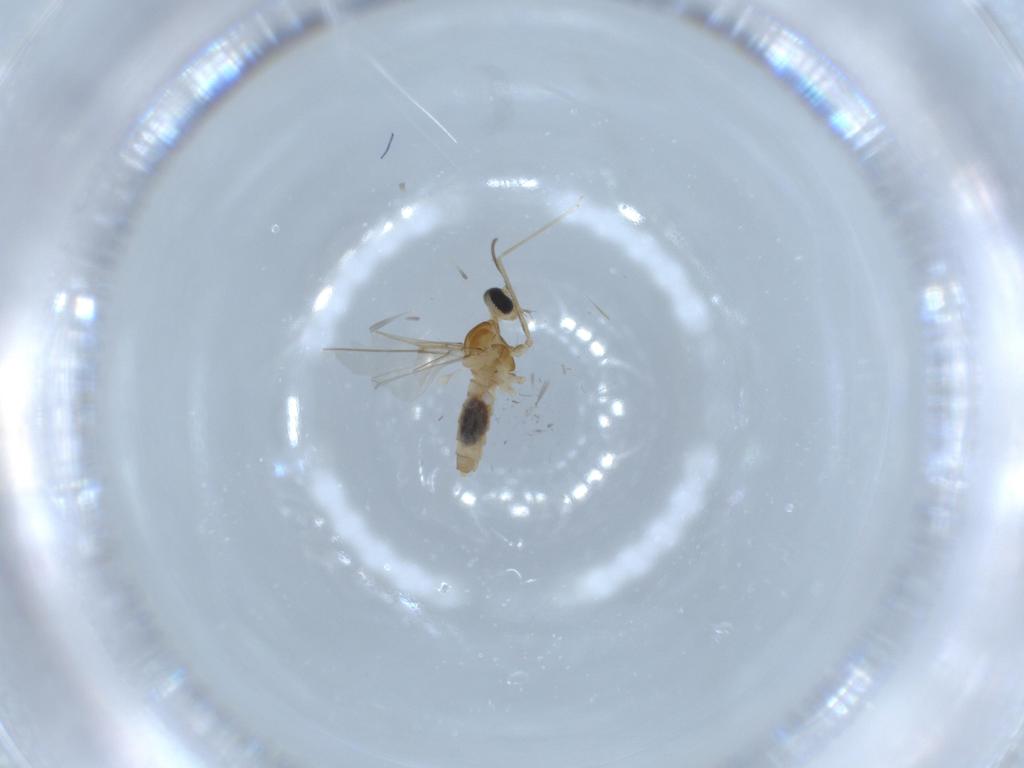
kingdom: Animalia
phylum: Arthropoda
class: Insecta
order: Diptera
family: Cecidomyiidae
